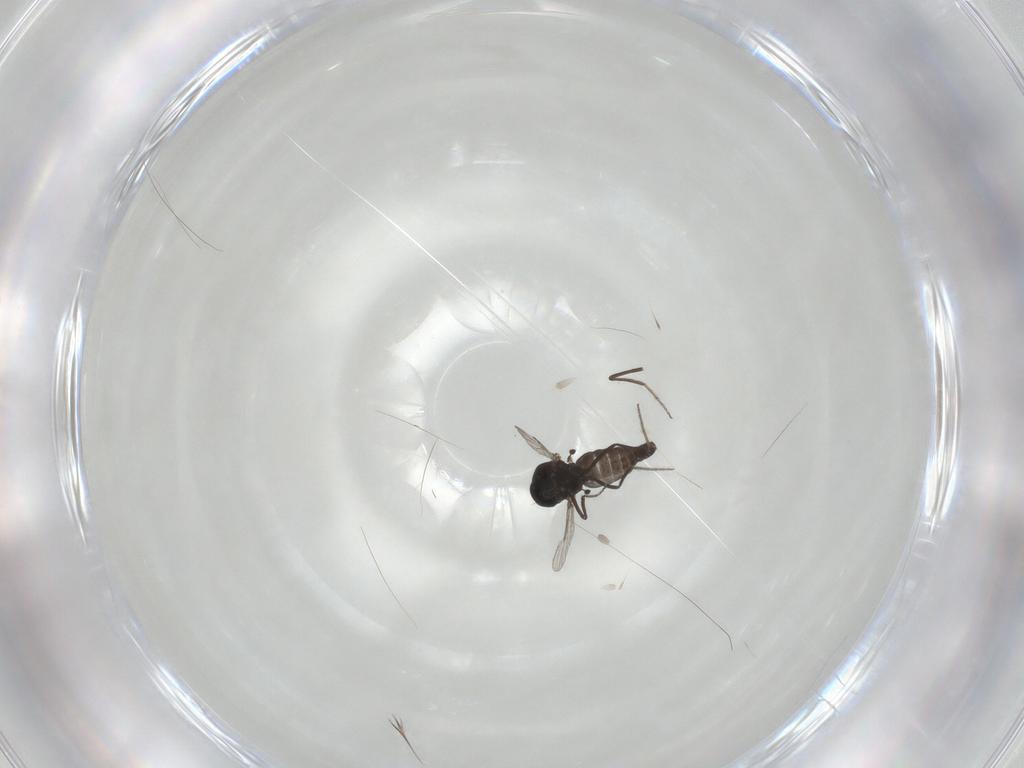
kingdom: Animalia
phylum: Arthropoda
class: Insecta
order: Diptera
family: Ceratopogonidae
